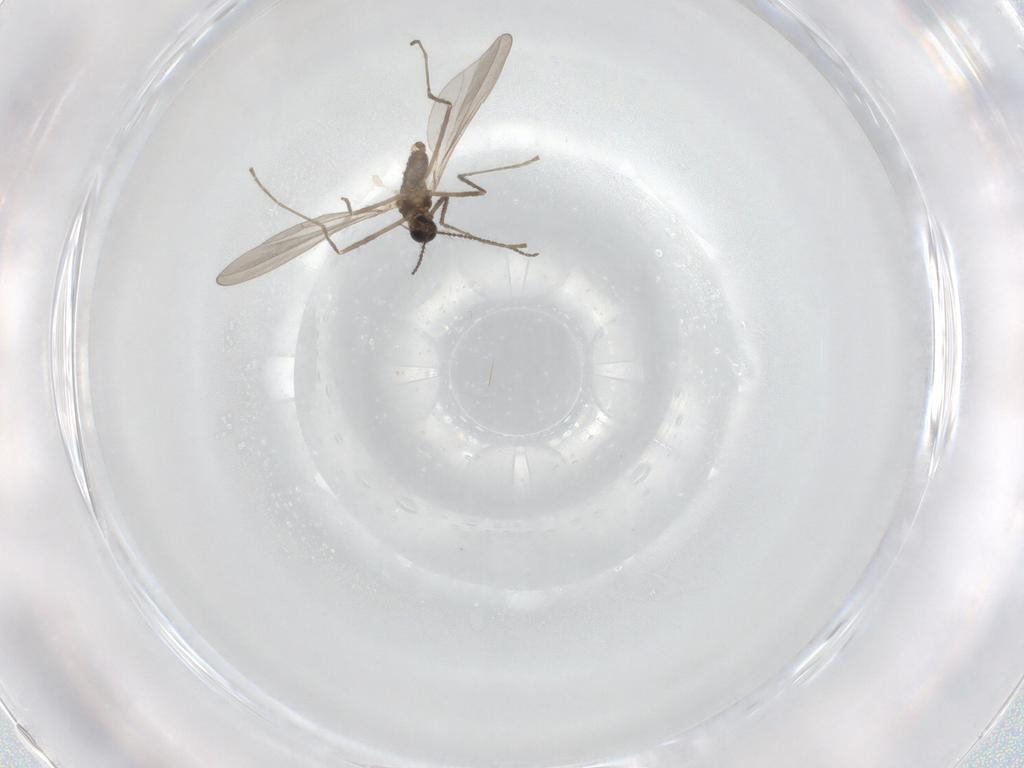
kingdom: Animalia
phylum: Arthropoda
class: Insecta
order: Diptera
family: Cecidomyiidae
